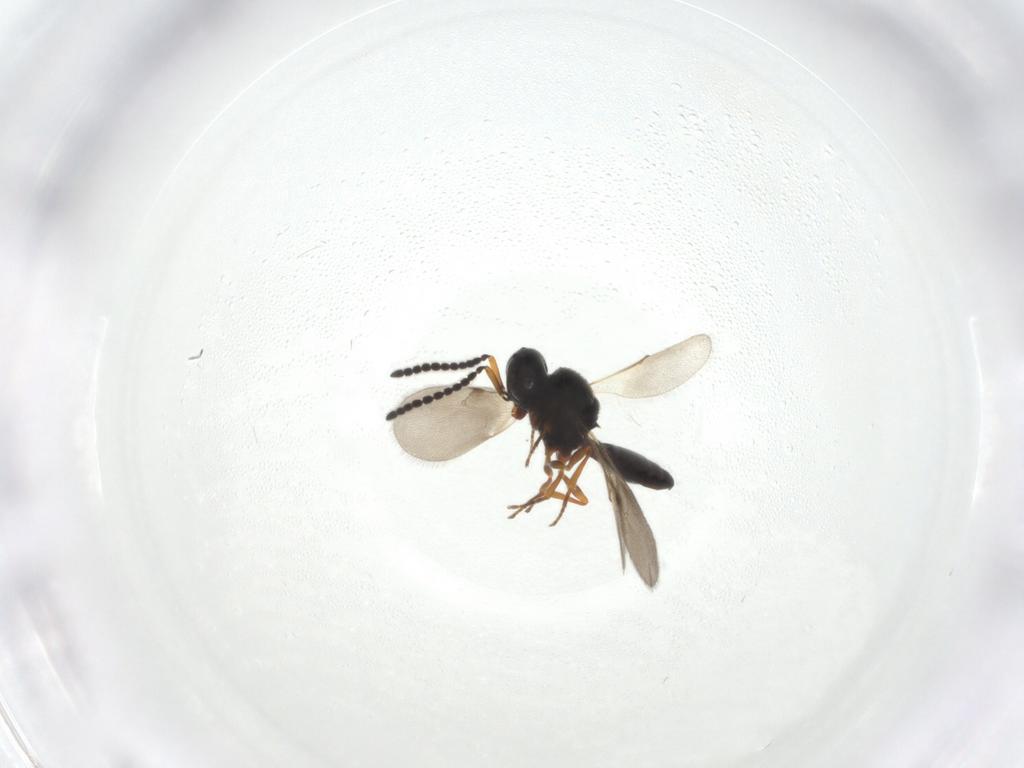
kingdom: Animalia
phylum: Arthropoda
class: Insecta
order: Hymenoptera
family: Scelionidae
